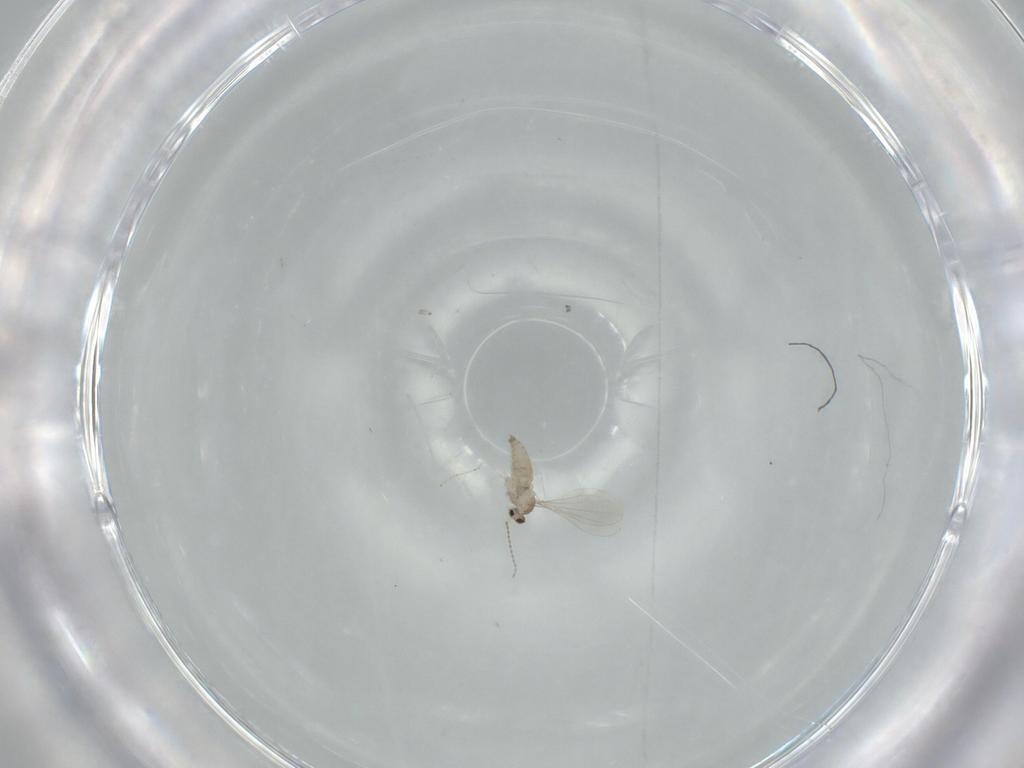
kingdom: Animalia
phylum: Arthropoda
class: Insecta
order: Diptera
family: Cecidomyiidae
